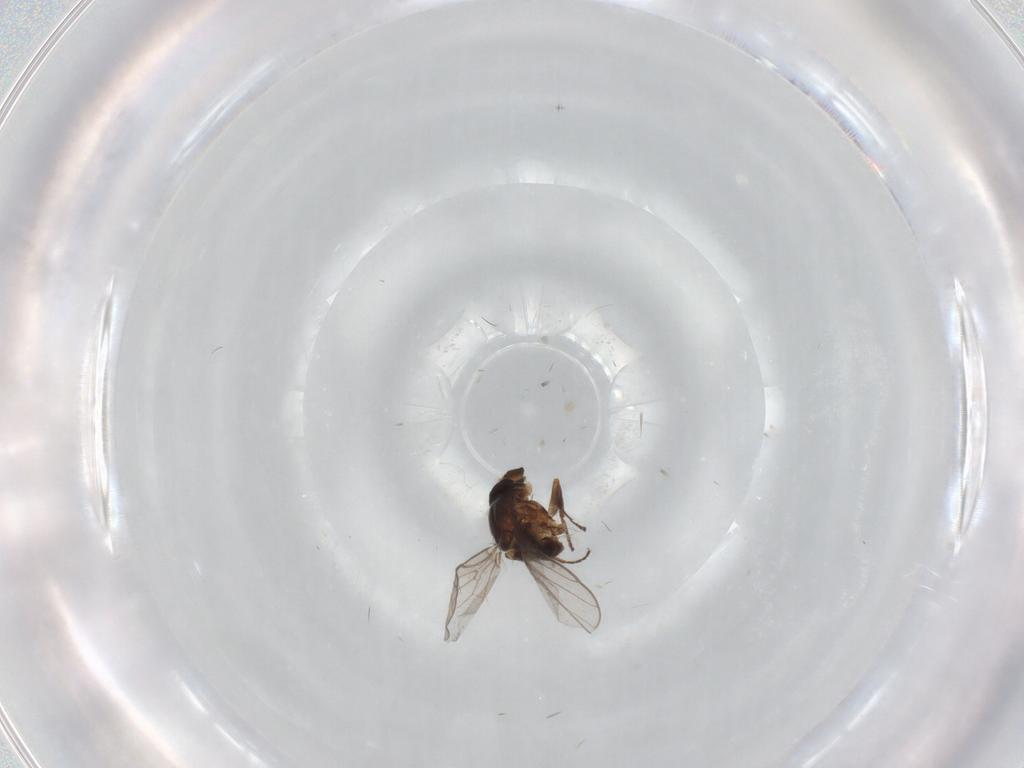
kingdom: Animalia
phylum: Arthropoda
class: Insecta
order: Diptera
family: Chloropidae
